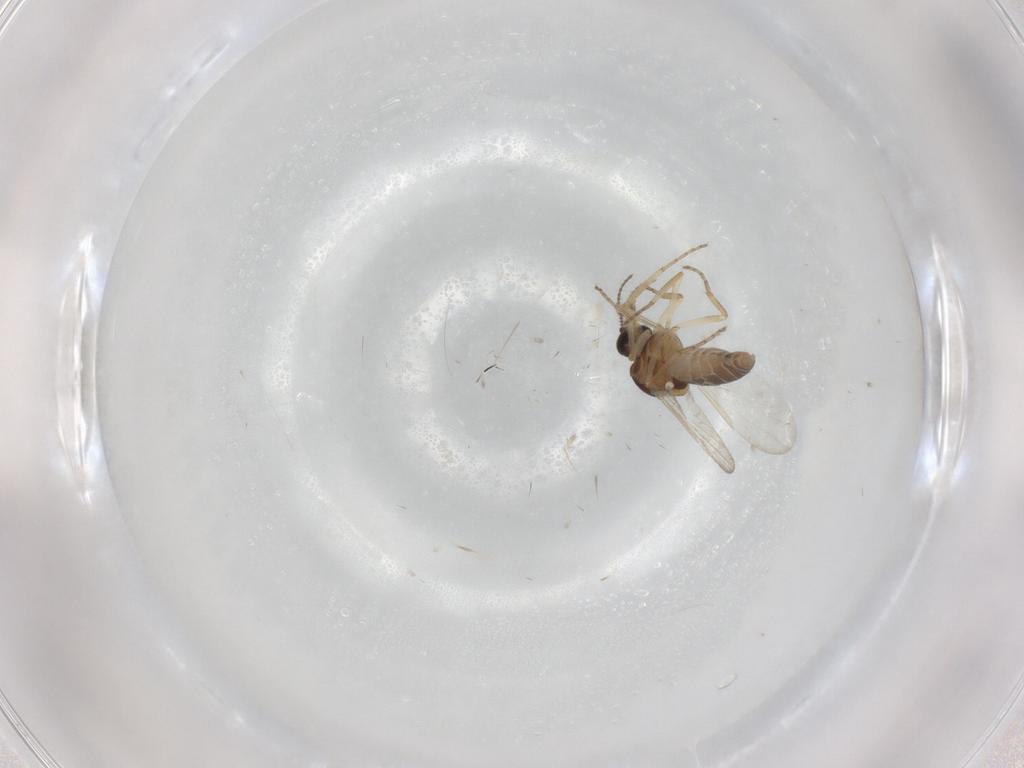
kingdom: Animalia
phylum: Arthropoda
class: Insecta
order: Diptera
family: Ceratopogonidae
